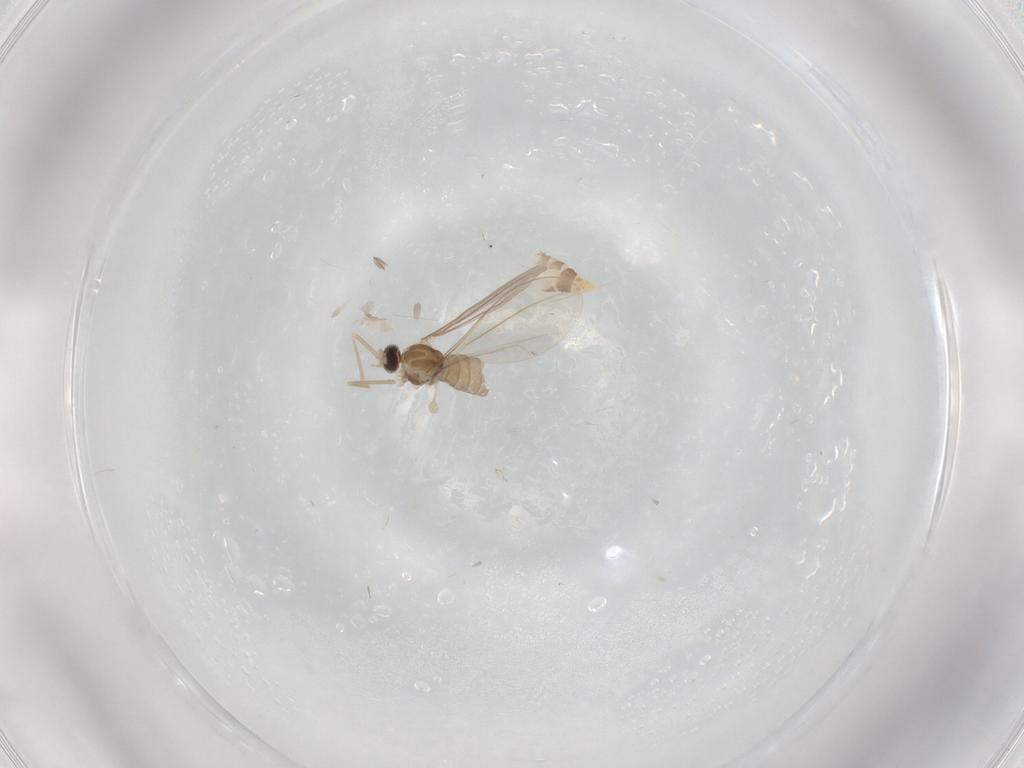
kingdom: Animalia
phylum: Arthropoda
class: Insecta
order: Diptera
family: Cecidomyiidae
